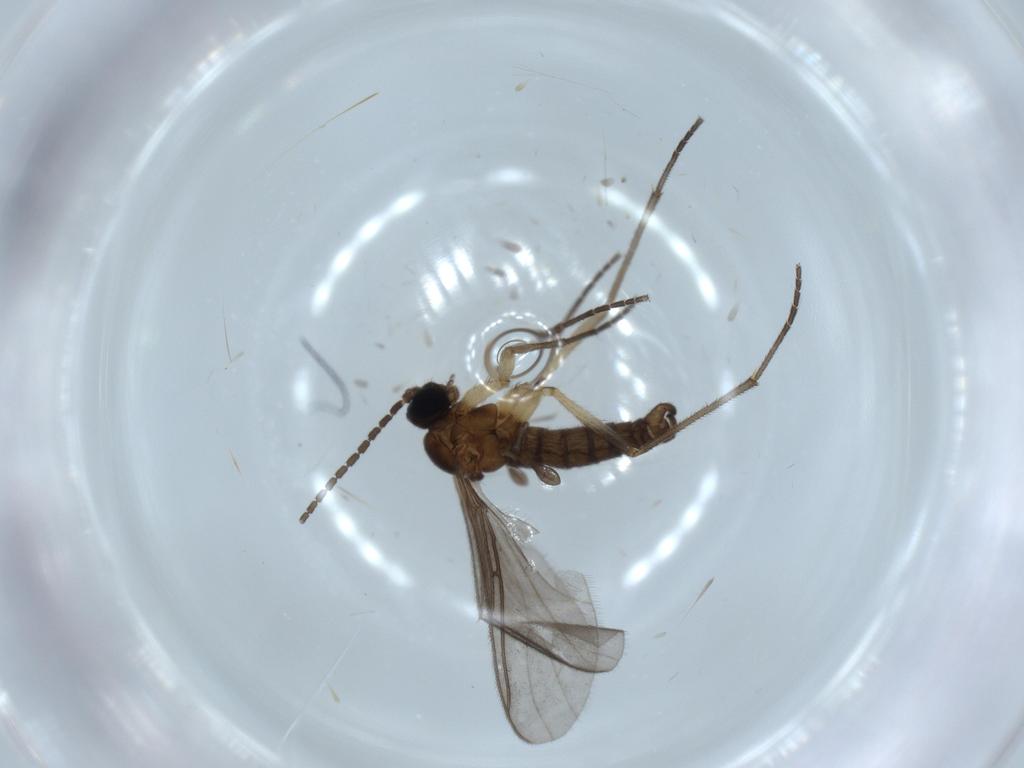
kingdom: Animalia
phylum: Arthropoda
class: Insecta
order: Diptera
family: Sciaridae
